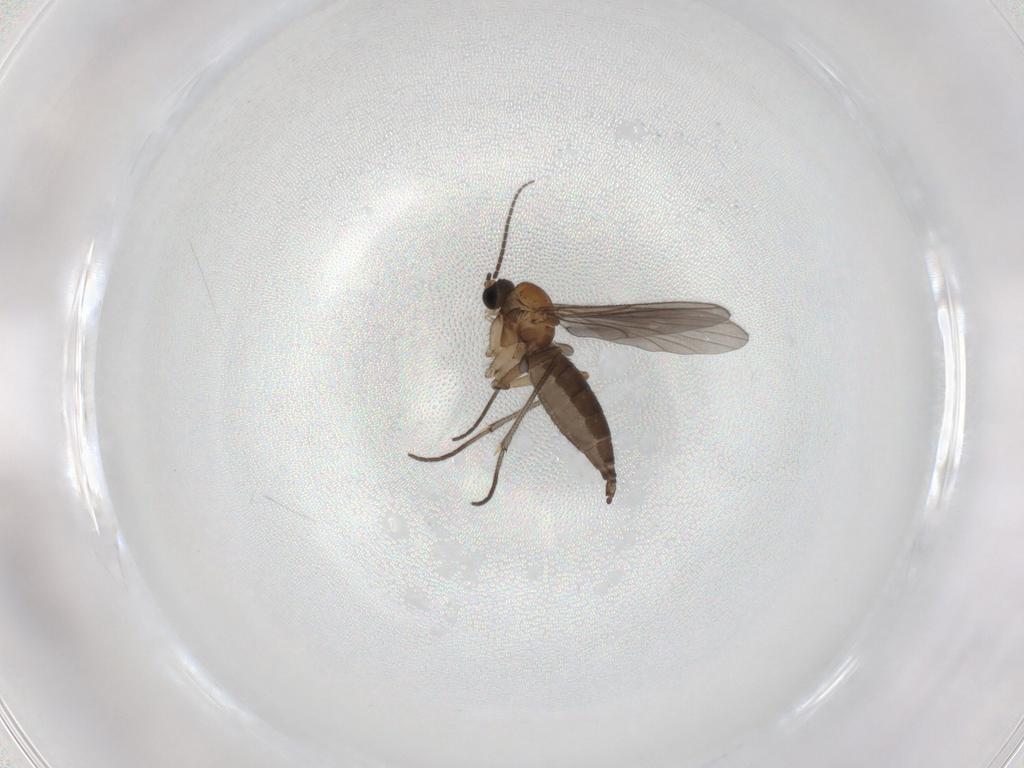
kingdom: Animalia
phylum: Arthropoda
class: Insecta
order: Diptera
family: Sciaridae
